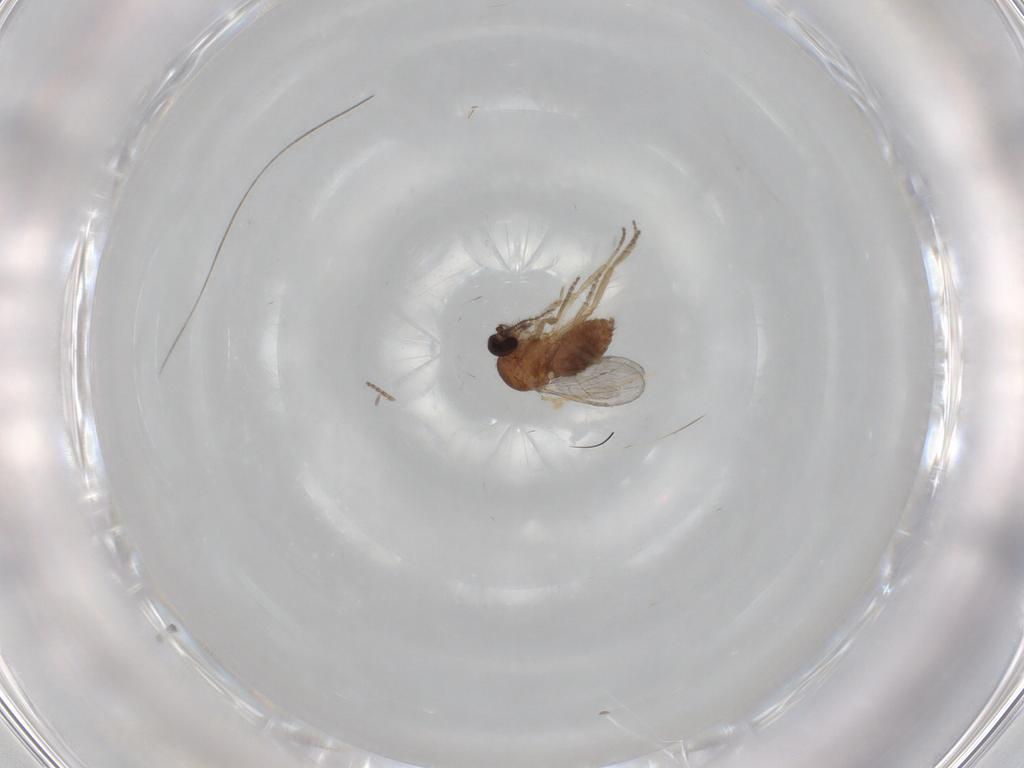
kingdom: Animalia
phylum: Arthropoda
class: Insecta
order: Diptera
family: Ceratopogonidae
